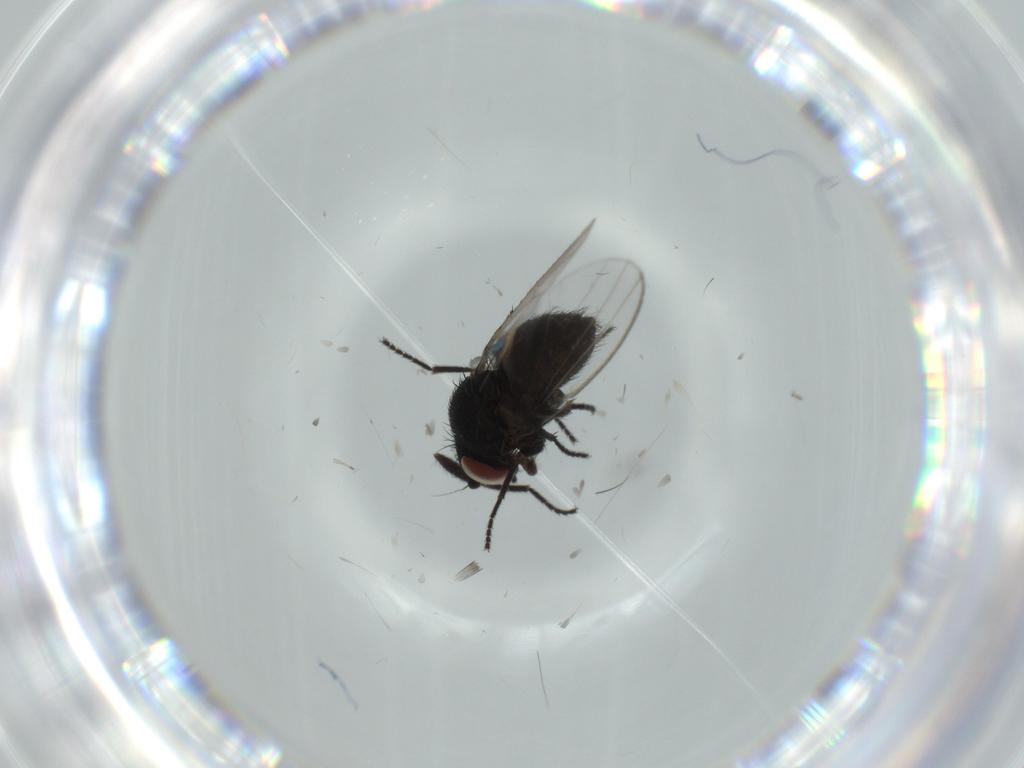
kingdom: Animalia
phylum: Arthropoda
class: Insecta
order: Diptera
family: Milichiidae
